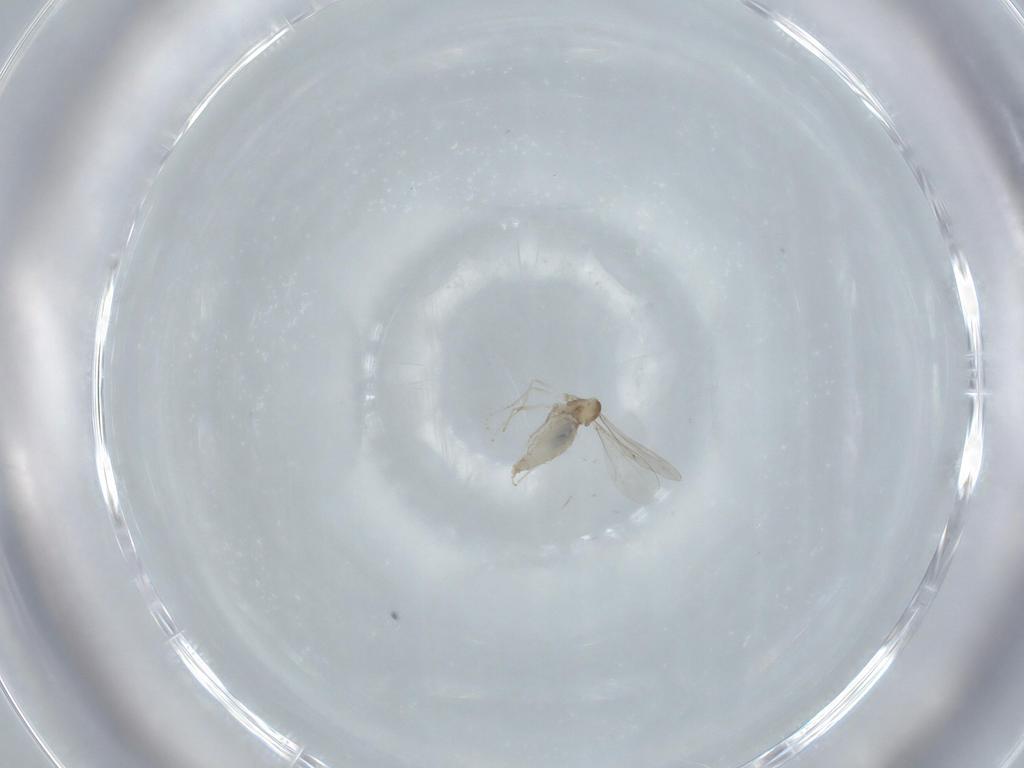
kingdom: Animalia
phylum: Arthropoda
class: Insecta
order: Diptera
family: Cecidomyiidae
